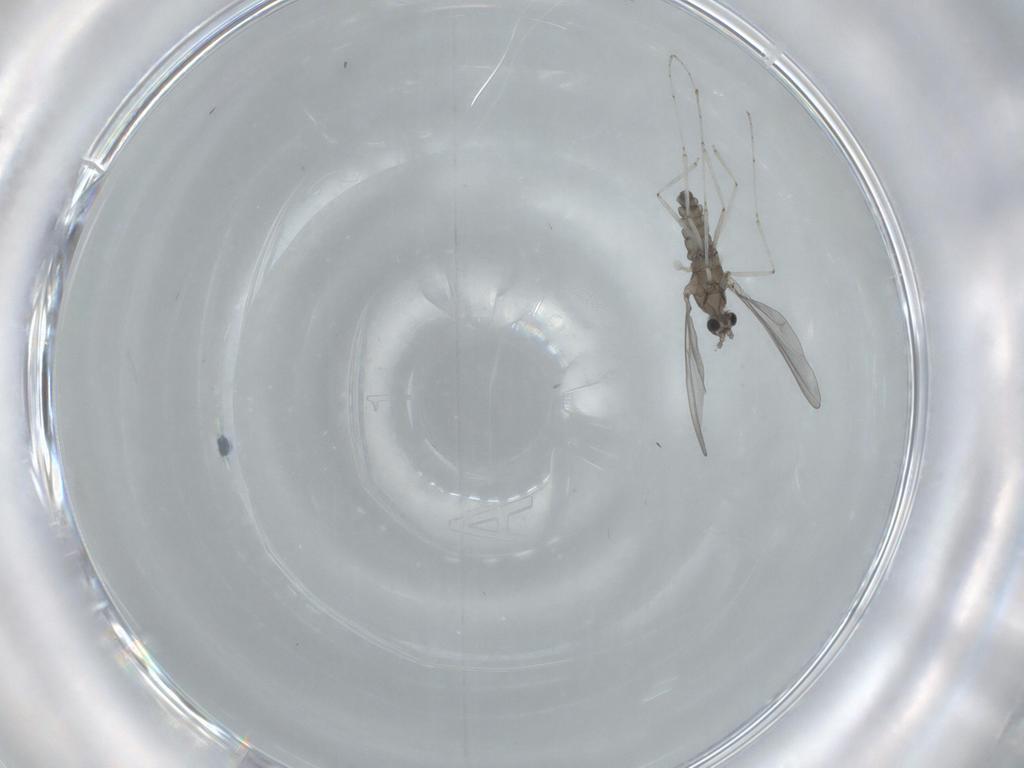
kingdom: Animalia
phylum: Arthropoda
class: Insecta
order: Diptera
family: Cecidomyiidae
